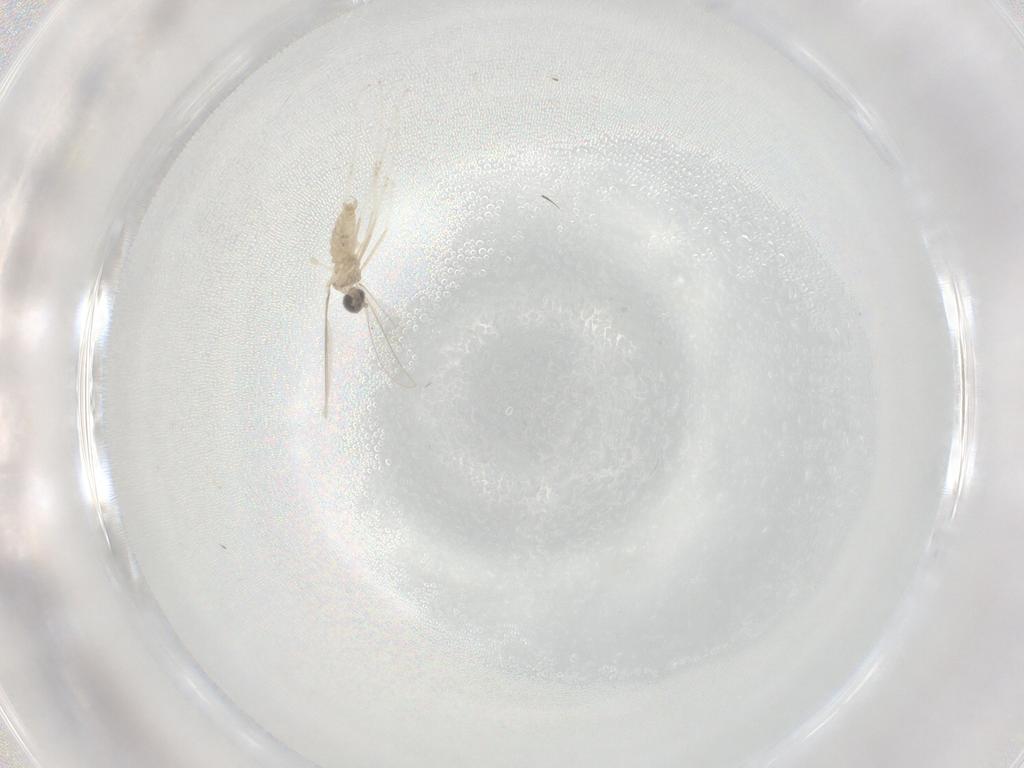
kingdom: Animalia
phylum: Arthropoda
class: Insecta
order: Diptera
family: Cecidomyiidae
